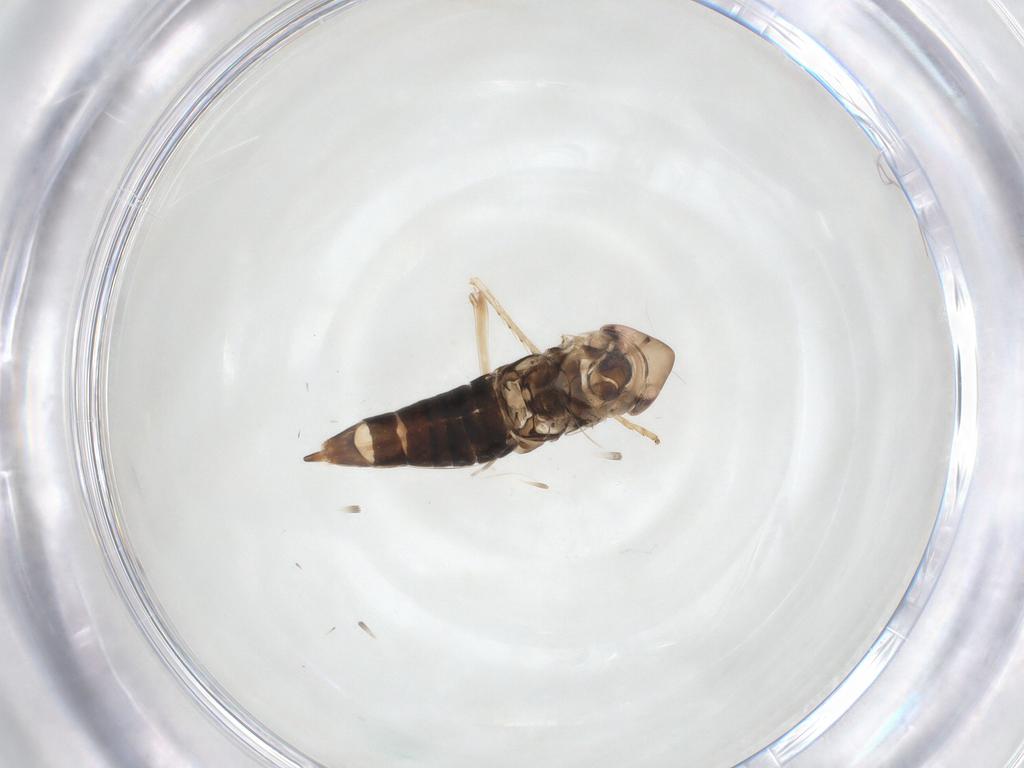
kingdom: Animalia
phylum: Arthropoda
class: Insecta
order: Hemiptera
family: Cicadellidae
